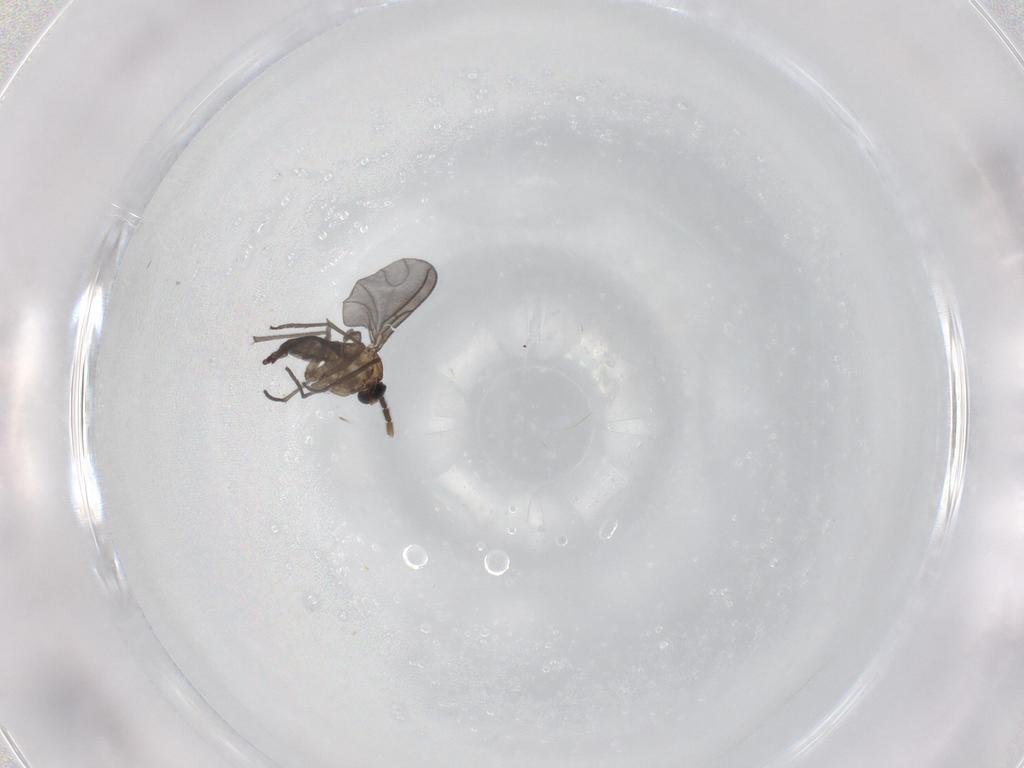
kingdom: Animalia
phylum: Arthropoda
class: Insecta
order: Diptera
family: Sciaridae
